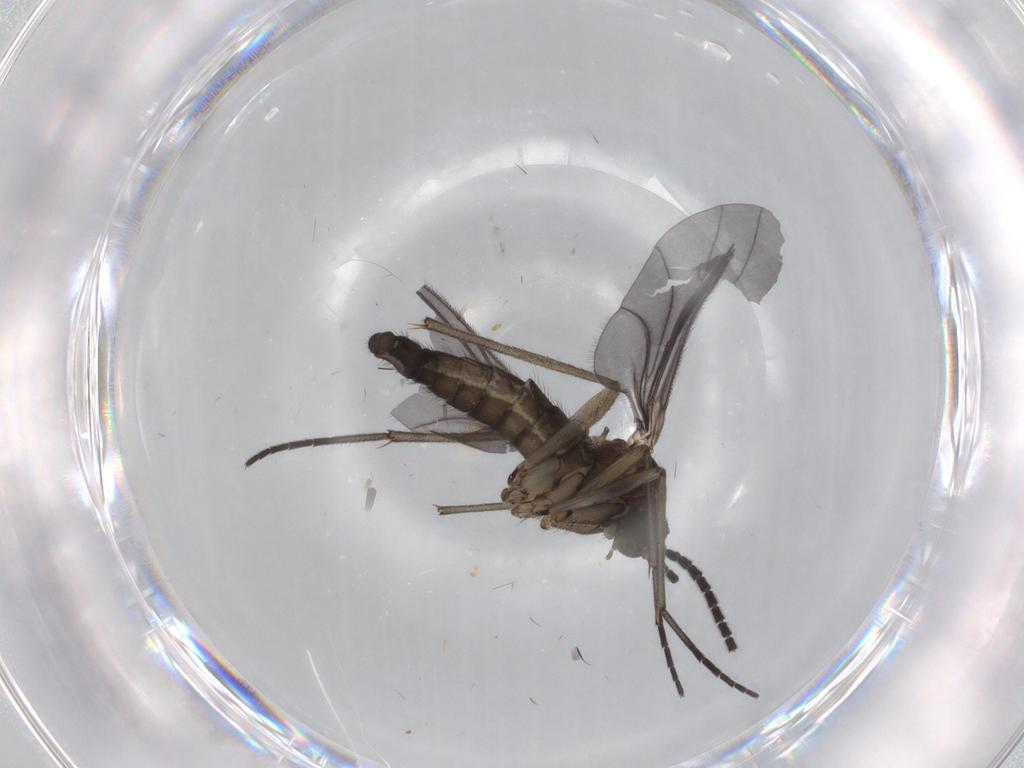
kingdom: Animalia
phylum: Arthropoda
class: Insecta
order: Diptera
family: Sciaridae
